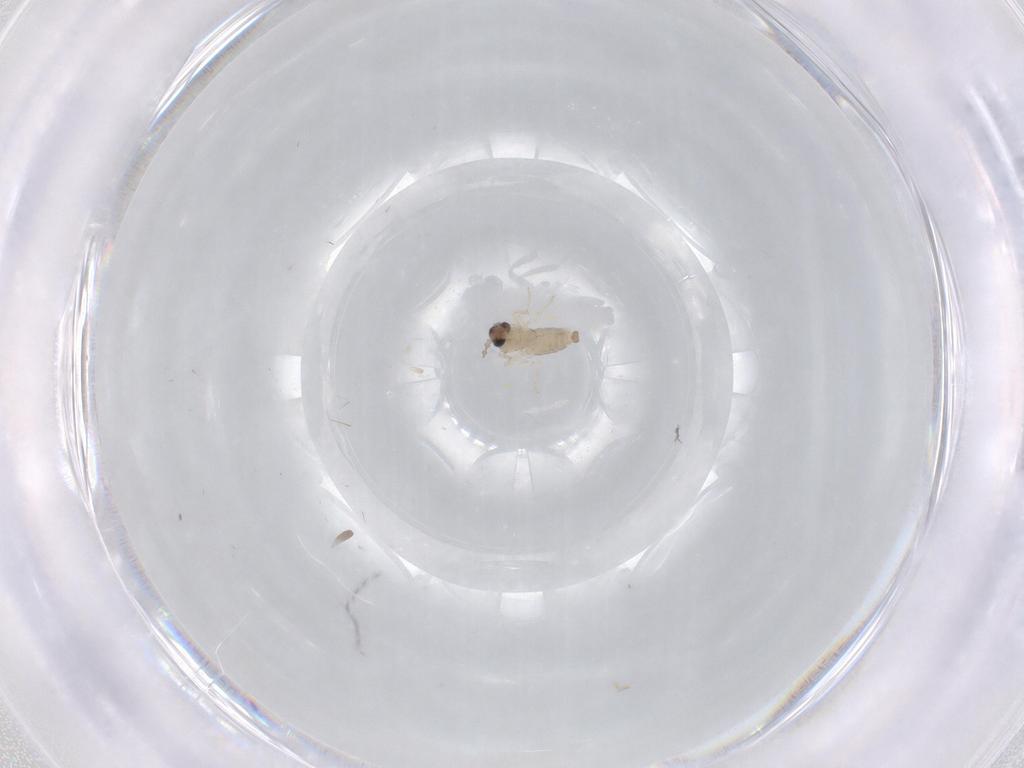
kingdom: Animalia
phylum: Arthropoda
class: Insecta
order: Diptera
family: Cecidomyiidae
